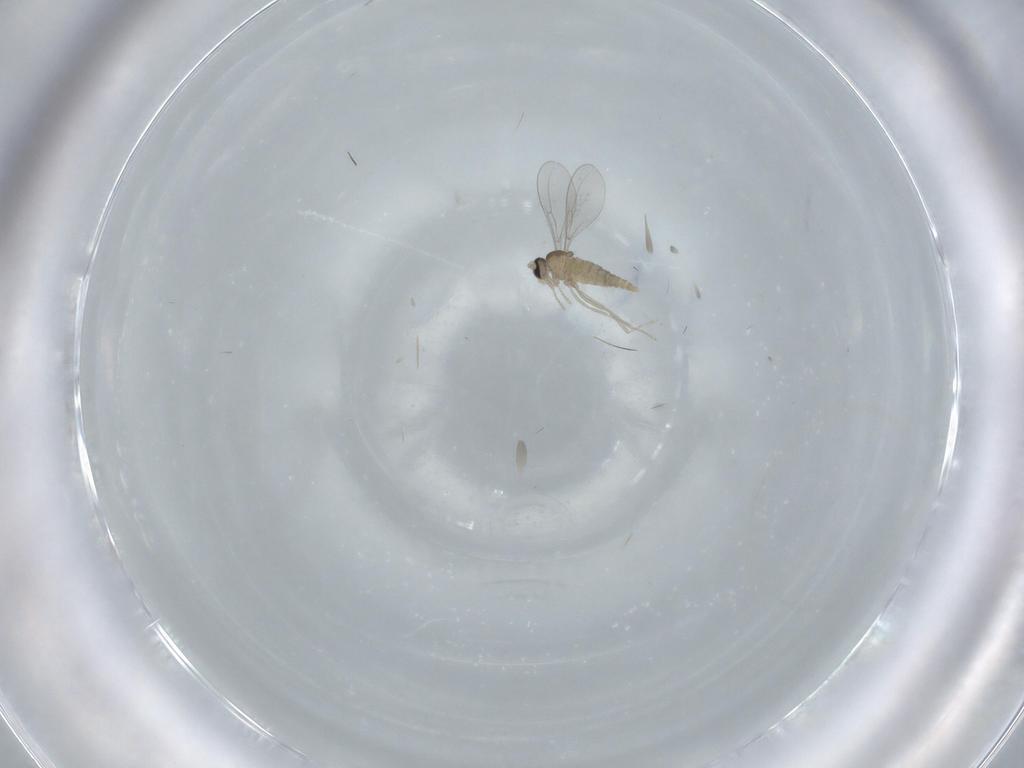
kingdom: Animalia
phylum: Arthropoda
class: Insecta
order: Diptera
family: Cecidomyiidae
